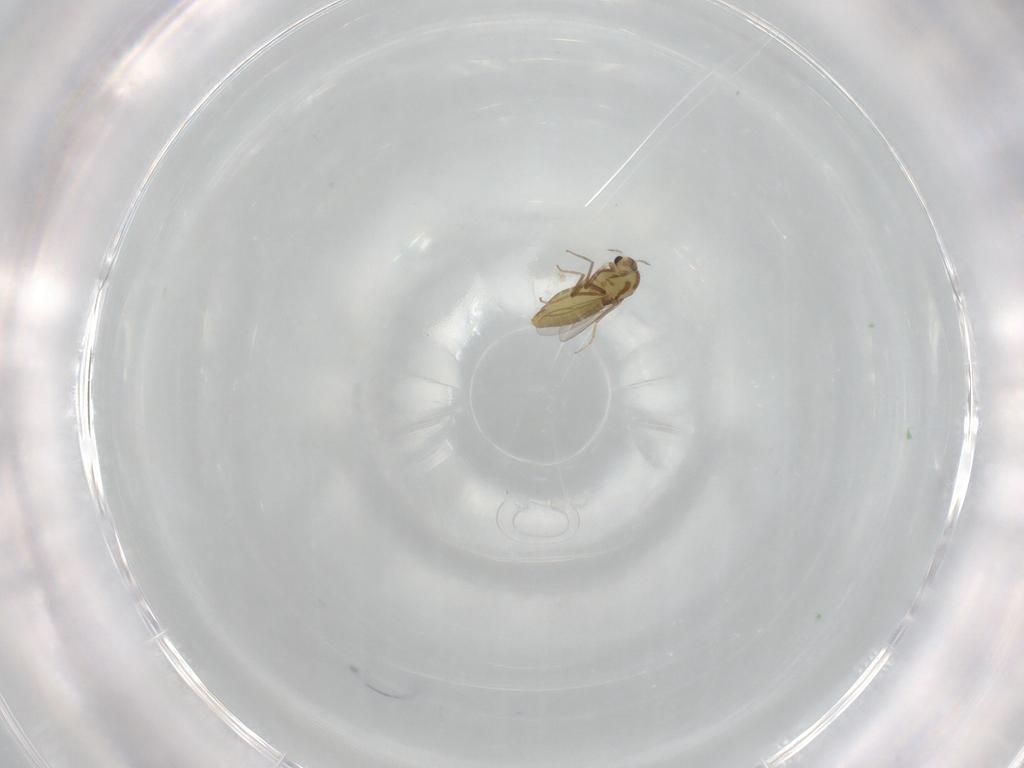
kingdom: Animalia
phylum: Arthropoda
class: Insecta
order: Diptera
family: Chironomidae
